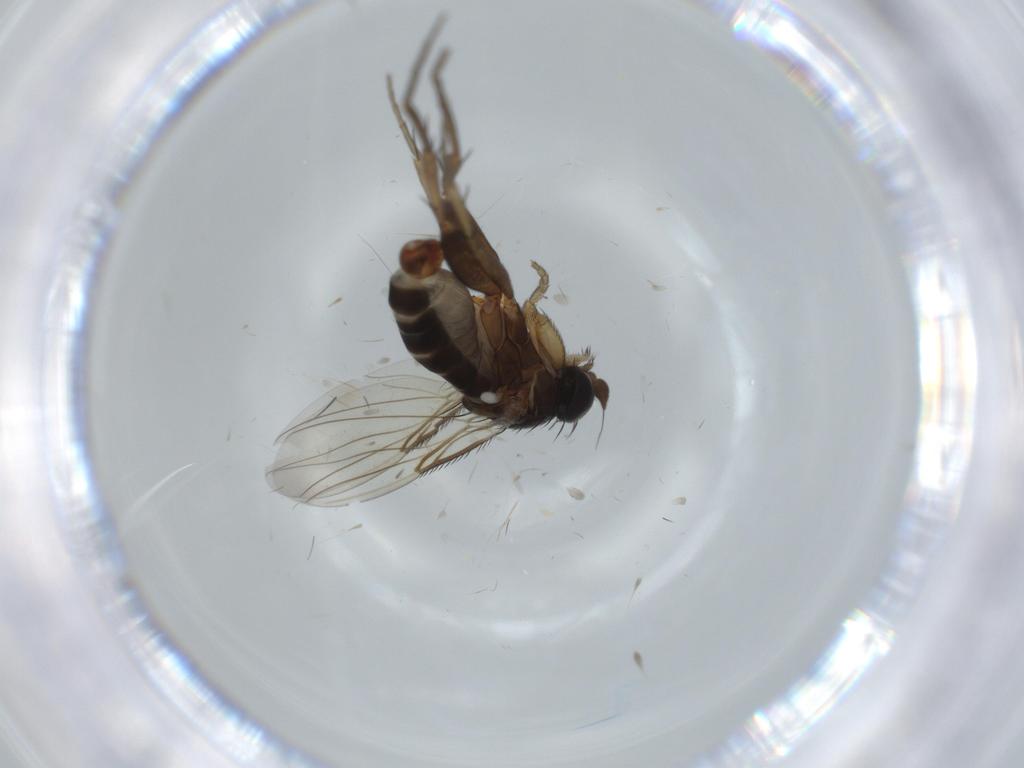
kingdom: Animalia
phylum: Arthropoda
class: Insecta
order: Diptera
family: Phoridae
